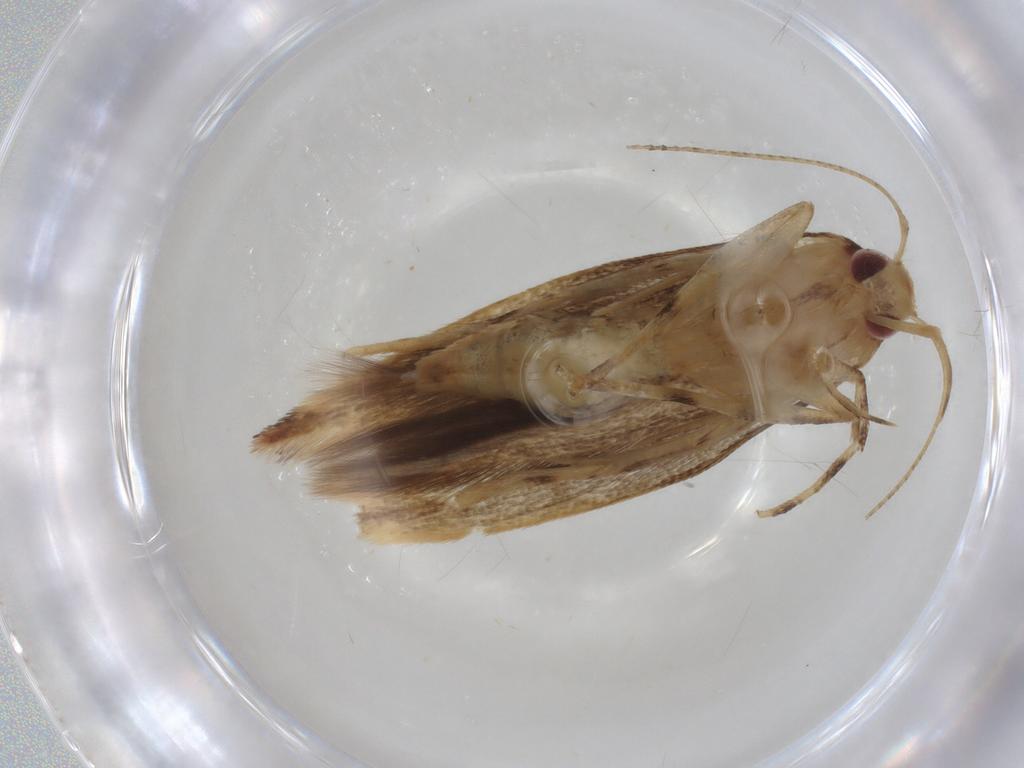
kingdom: Animalia
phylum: Arthropoda
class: Insecta
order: Lepidoptera
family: Cosmopterigidae
